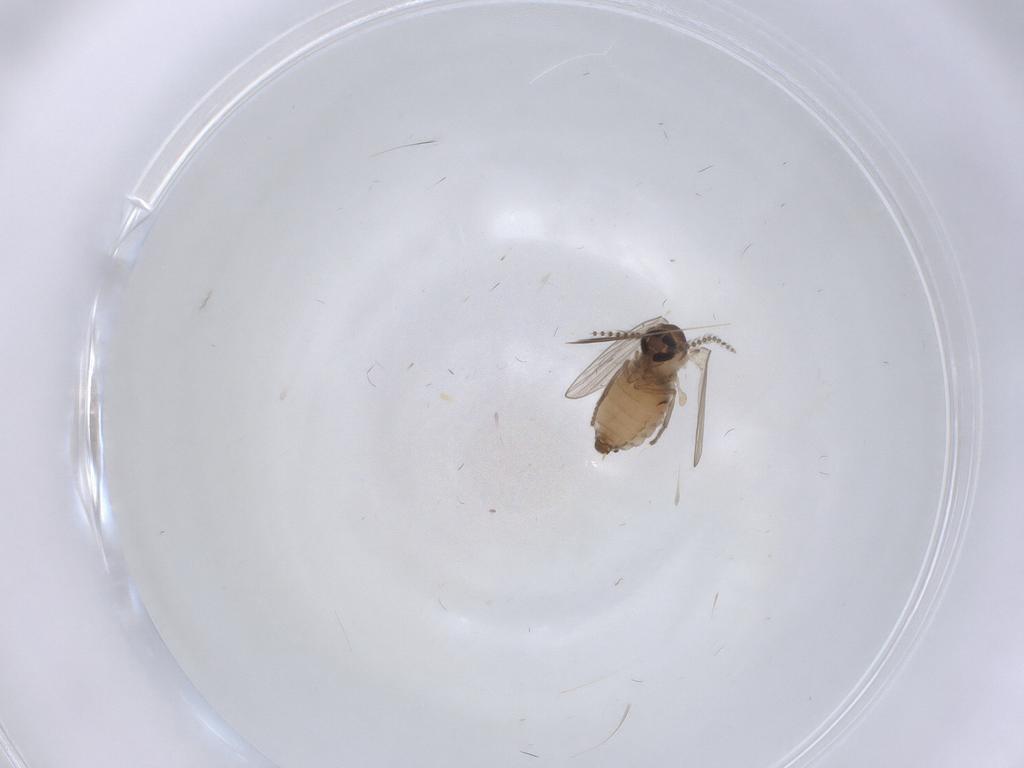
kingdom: Animalia
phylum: Arthropoda
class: Insecta
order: Diptera
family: Psychodidae
